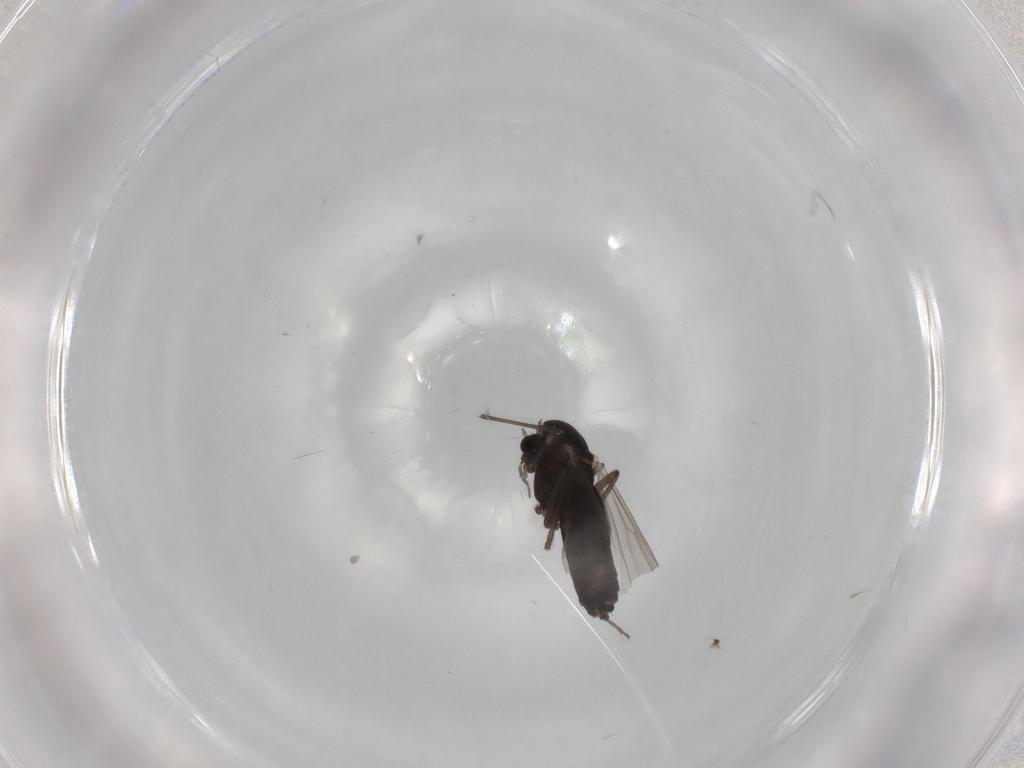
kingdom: Animalia
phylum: Arthropoda
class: Insecta
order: Diptera
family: Chironomidae
